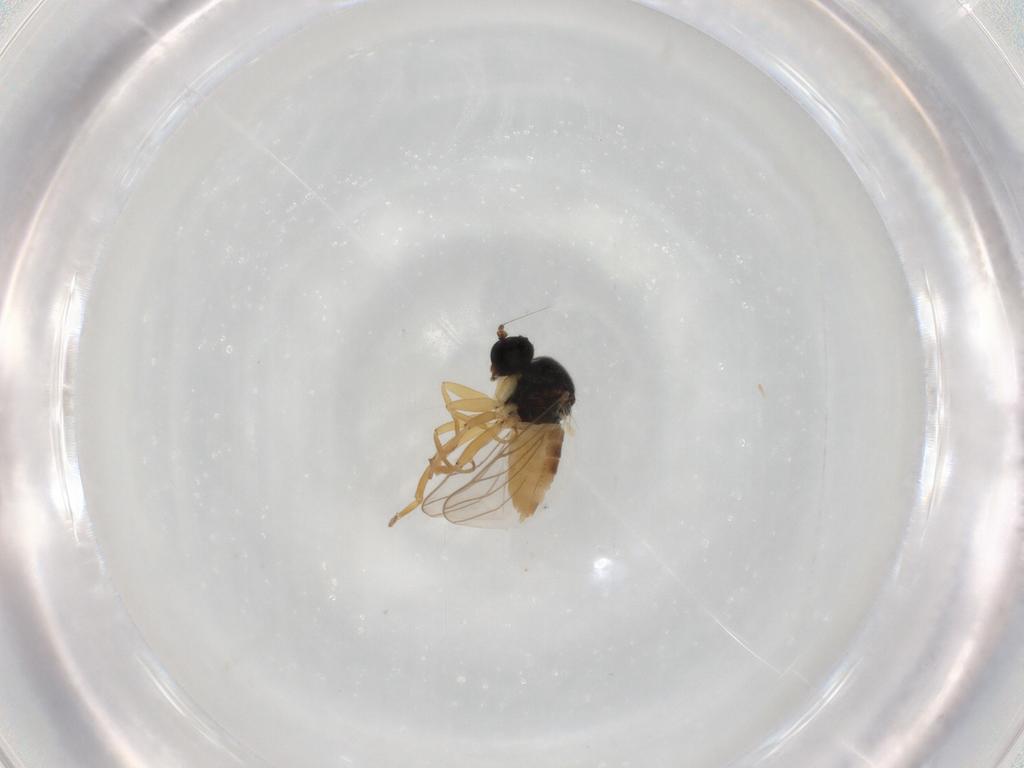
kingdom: Animalia
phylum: Arthropoda
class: Insecta
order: Diptera
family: Hybotidae
